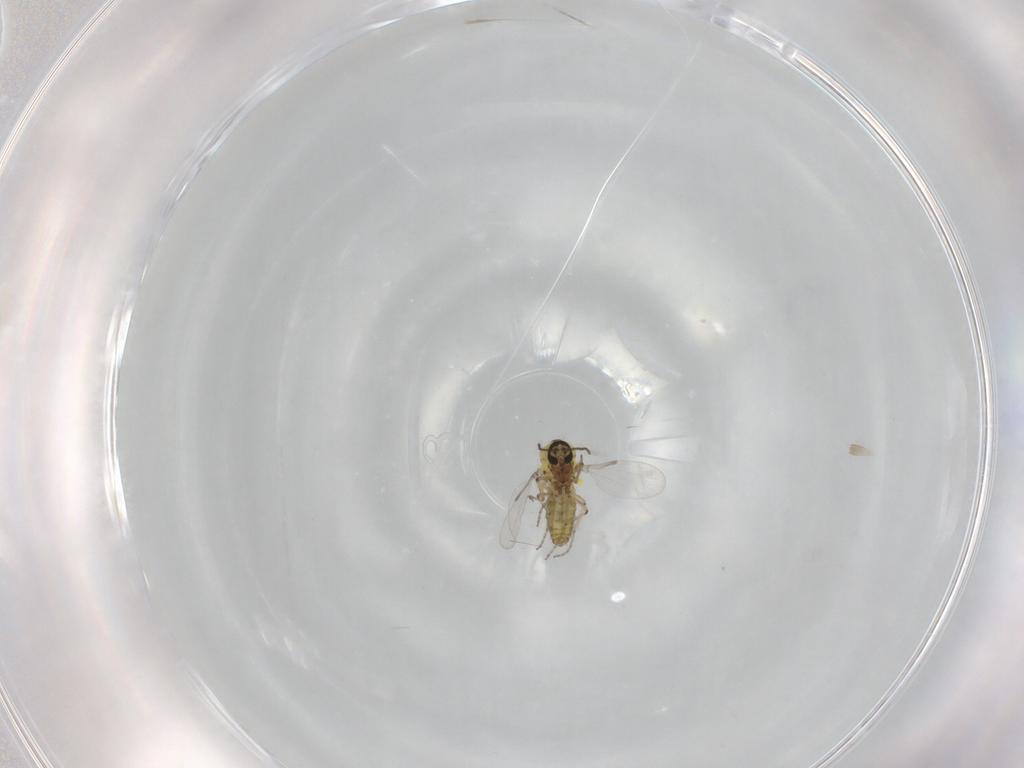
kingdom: Animalia
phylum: Arthropoda
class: Insecta
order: Diptera
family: Ceratopogonidae
